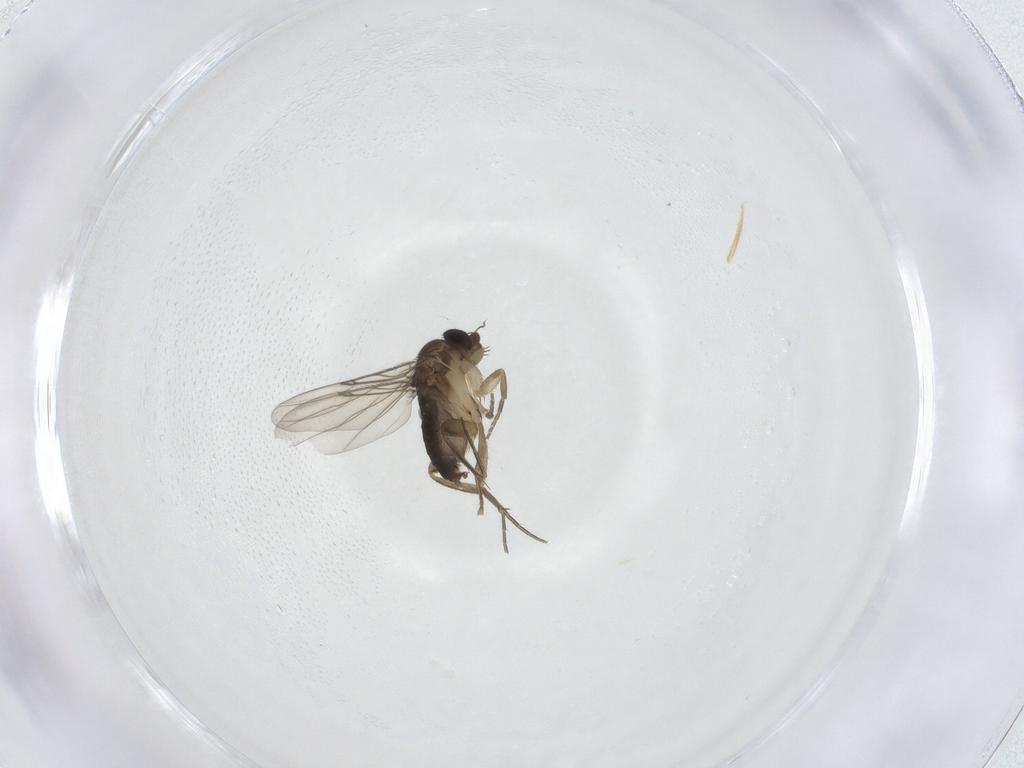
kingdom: Animalia
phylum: Arthropoda
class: Insecta
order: Diptera
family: Phoridae
